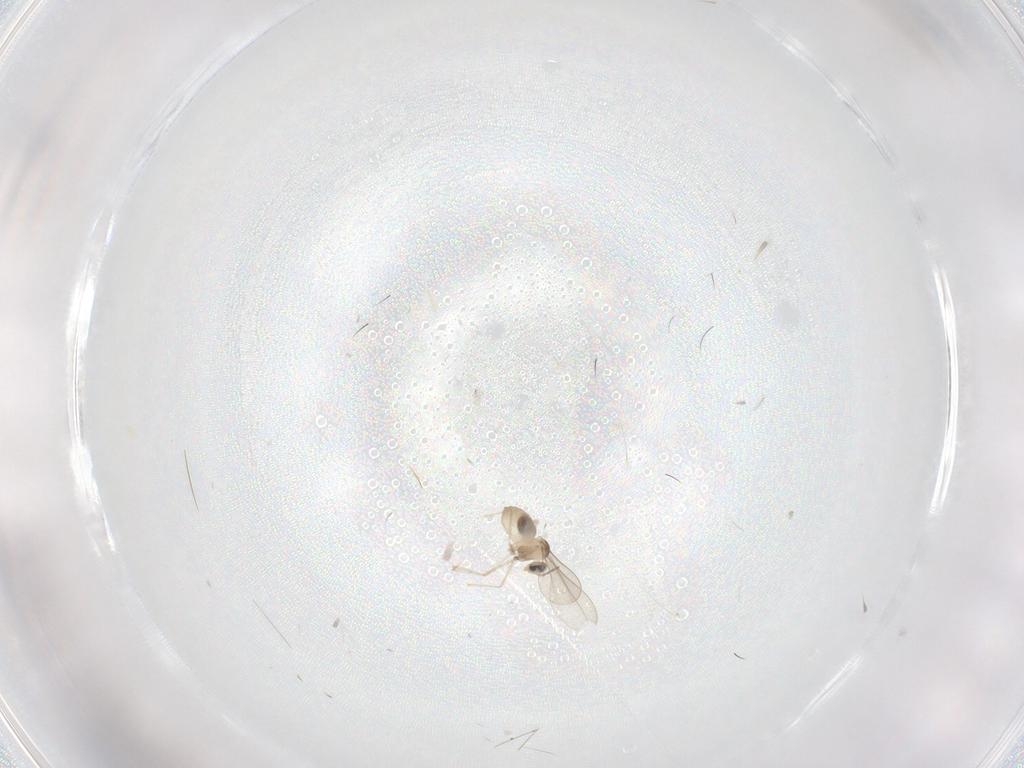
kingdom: Animalia
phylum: Arthropoda
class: Insecta
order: Diptera
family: Cecidomyiidae
